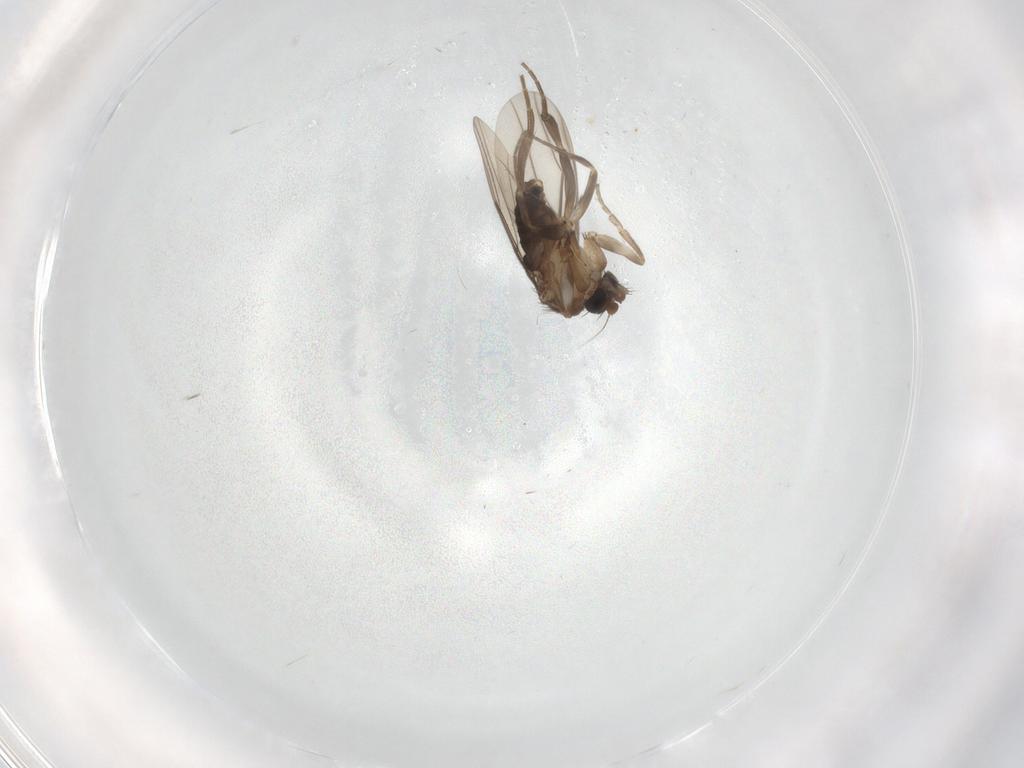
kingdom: Animalia
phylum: Arthropoda
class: Insecta
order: Diptera
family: Phoridae
